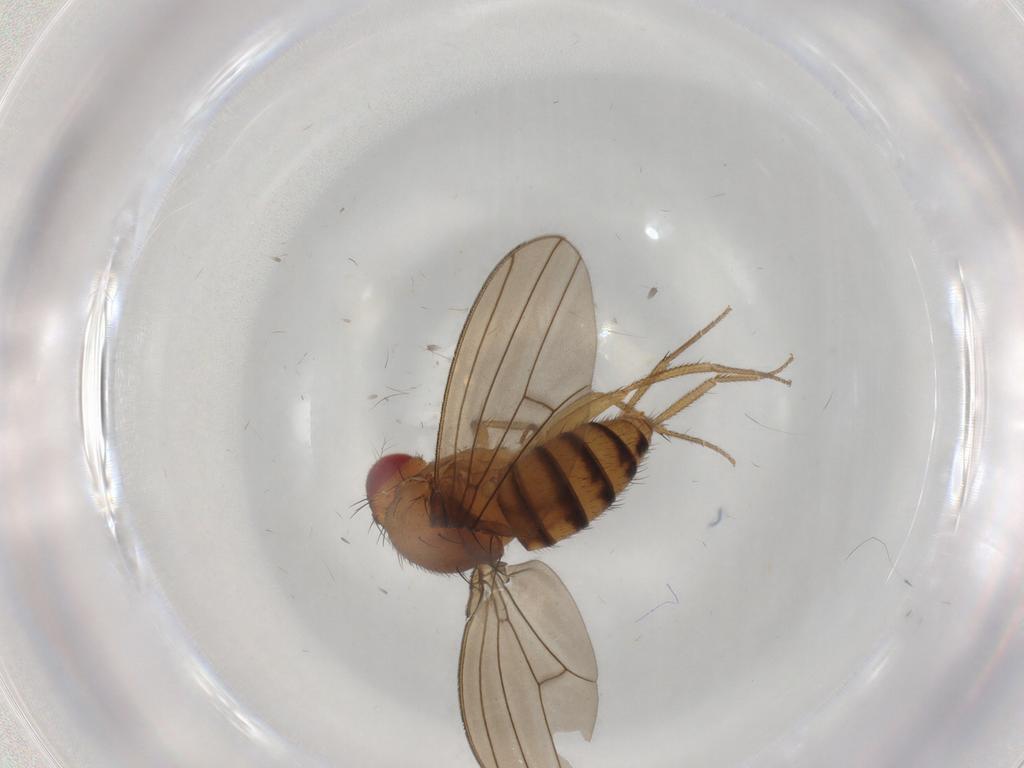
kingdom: Animalia
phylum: Arthropoda
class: Insecta
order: Diptera
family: Drosophilidae
